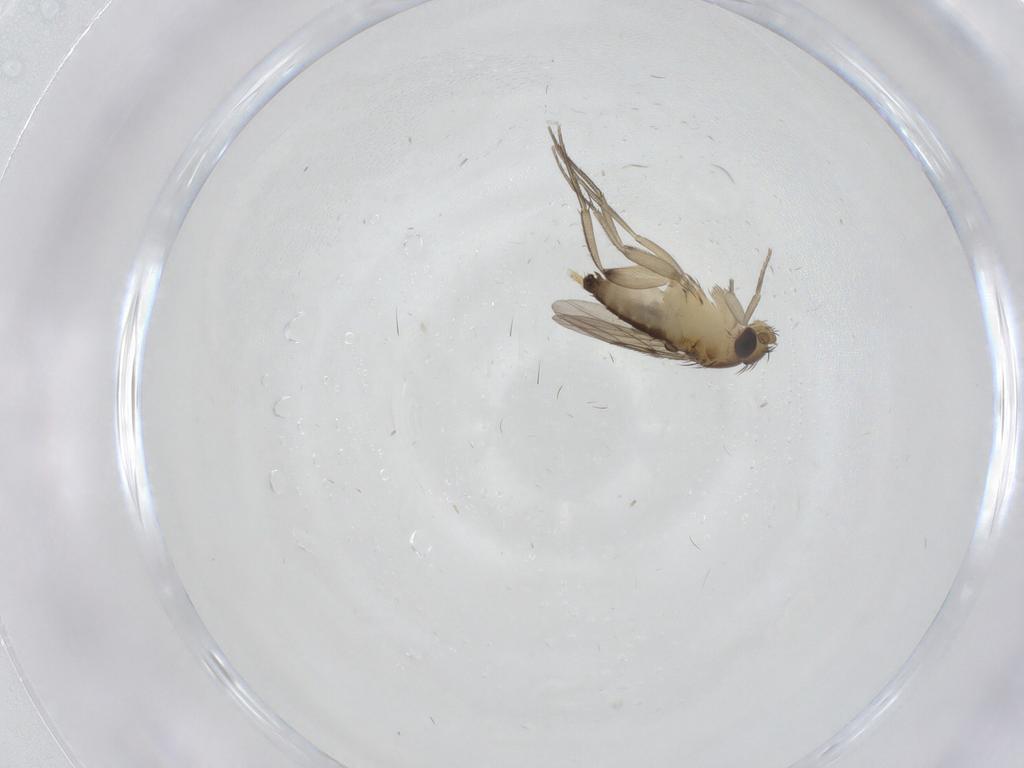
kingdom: Animalia
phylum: Arthropoda
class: Insecta
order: Diptera
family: Phoridae
